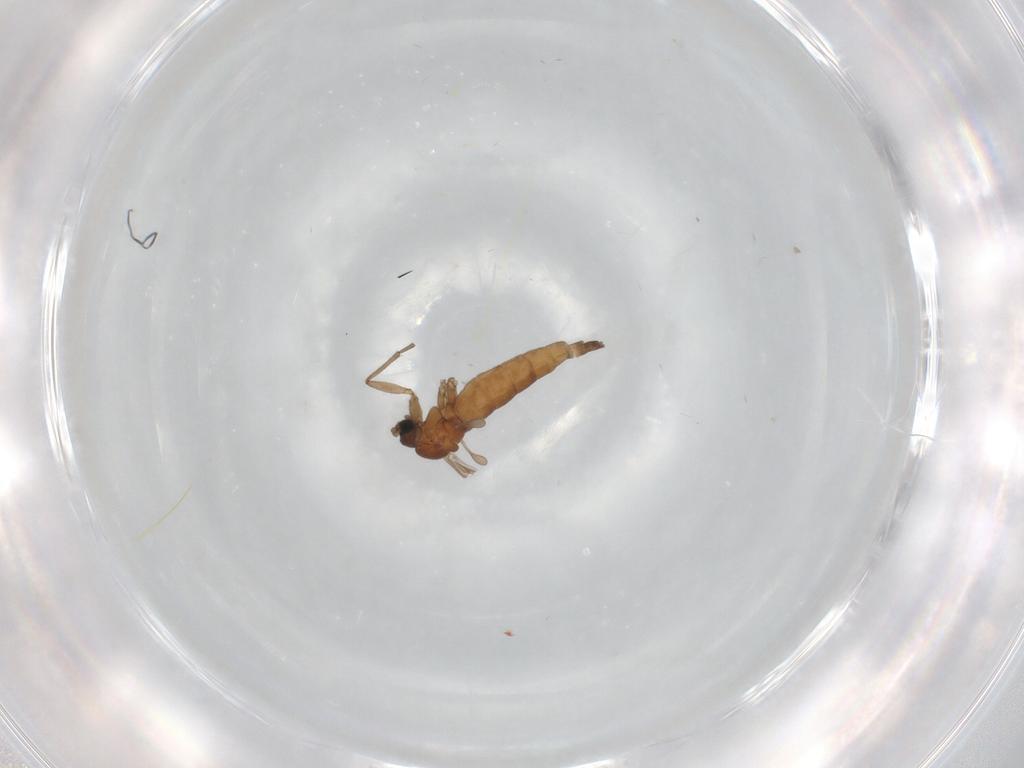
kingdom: Animalia
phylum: Arthropoda
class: Insecta
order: Diptera
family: Sciaridae
